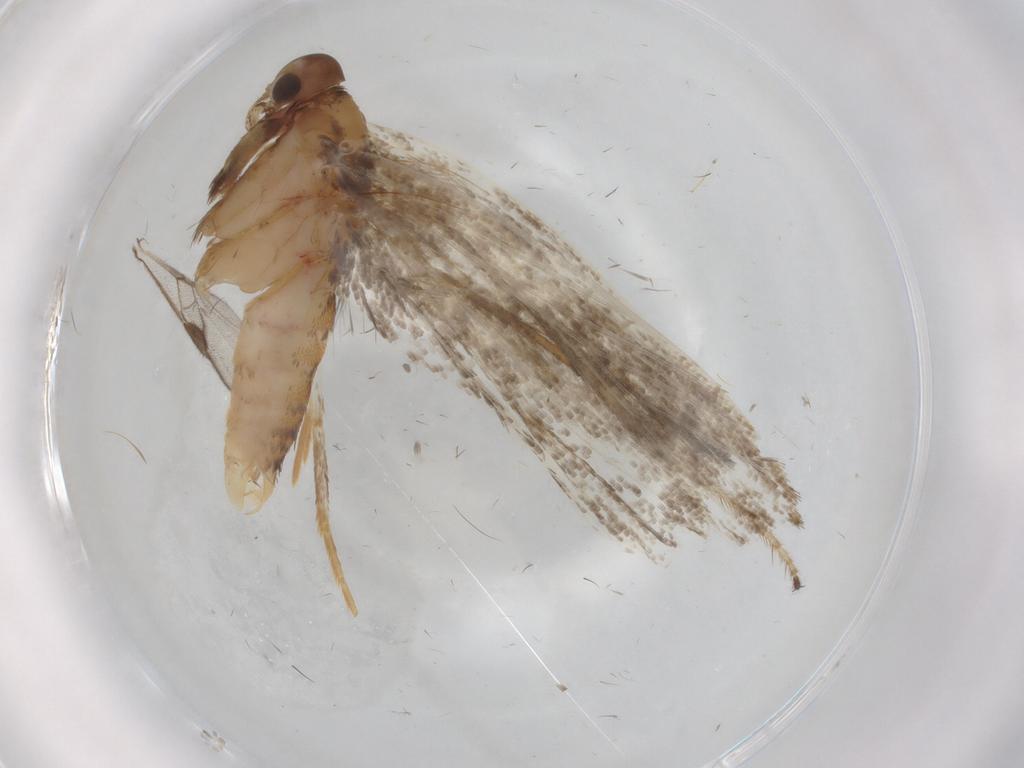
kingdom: Animalia
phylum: Arthropoda
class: Insecta
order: Lepidoptera
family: Oecophoridae
